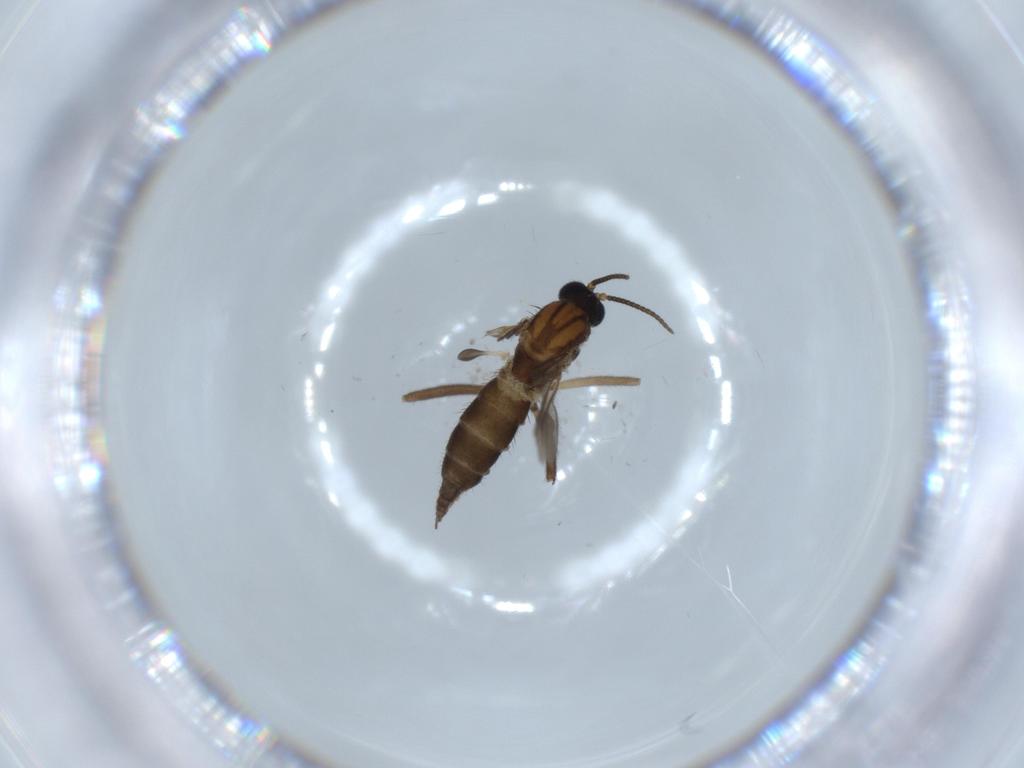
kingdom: Animalia
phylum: Arthropoda
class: Insecta
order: Diptera
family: Sciaridae
